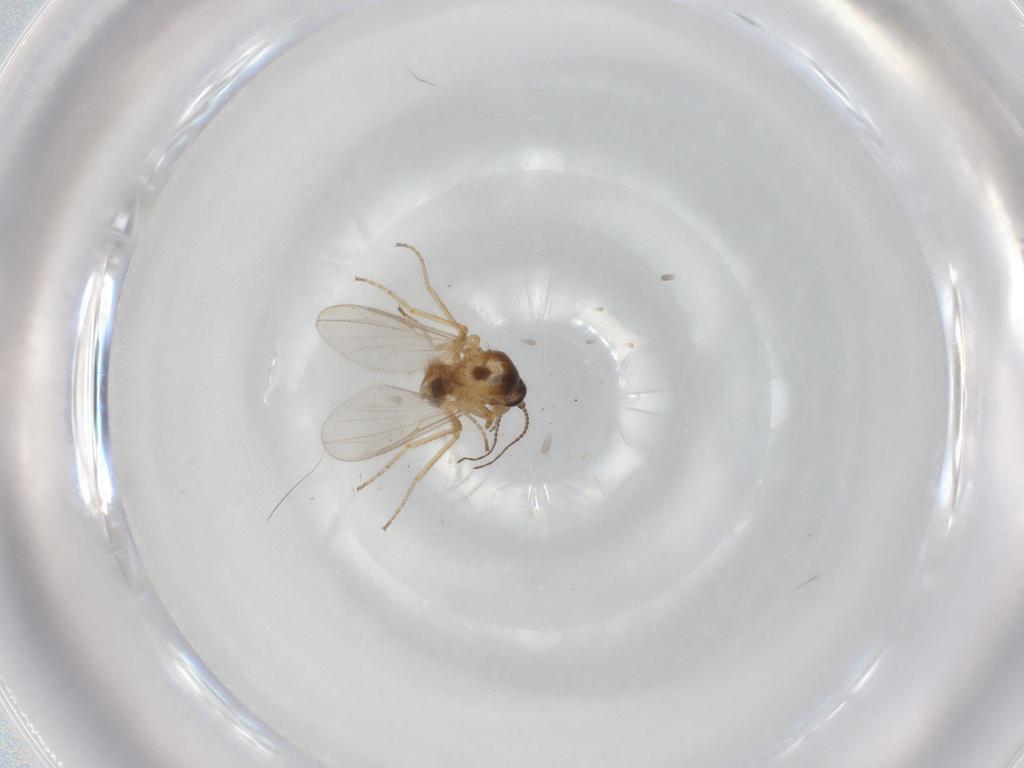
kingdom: Animalia
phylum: Arthropoda
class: Insecta
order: Diptera
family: Ceratopogonidae
